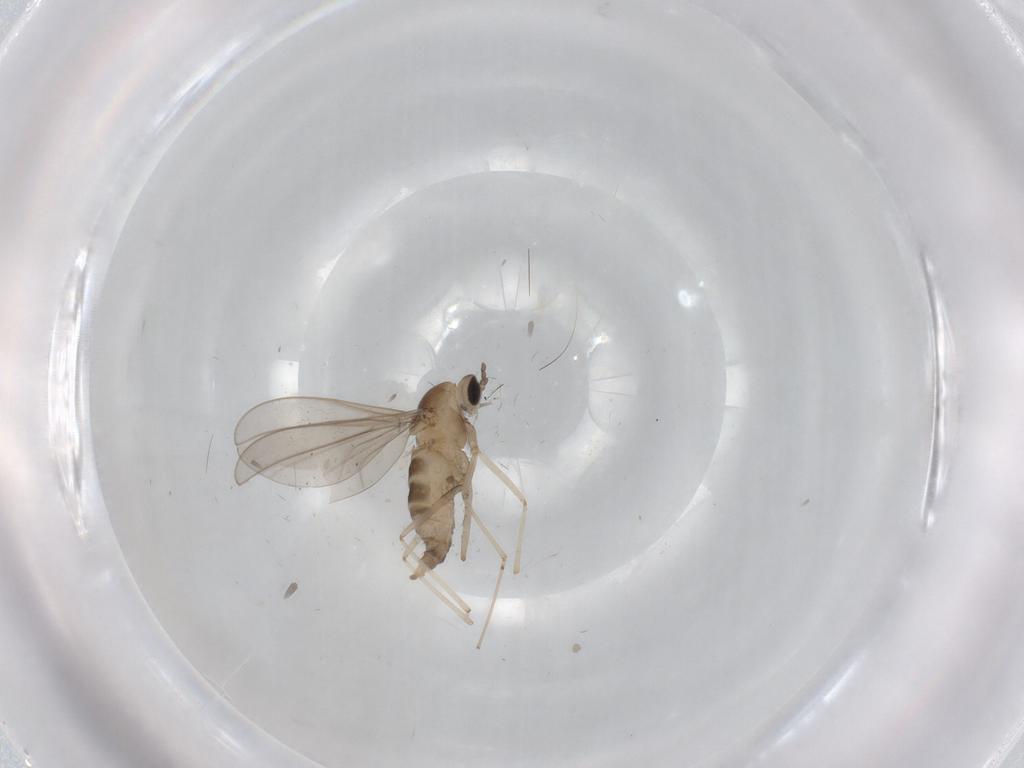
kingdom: Animalia
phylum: Arthropoda
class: Insecta
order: Diptera
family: Cecidomyiidae
